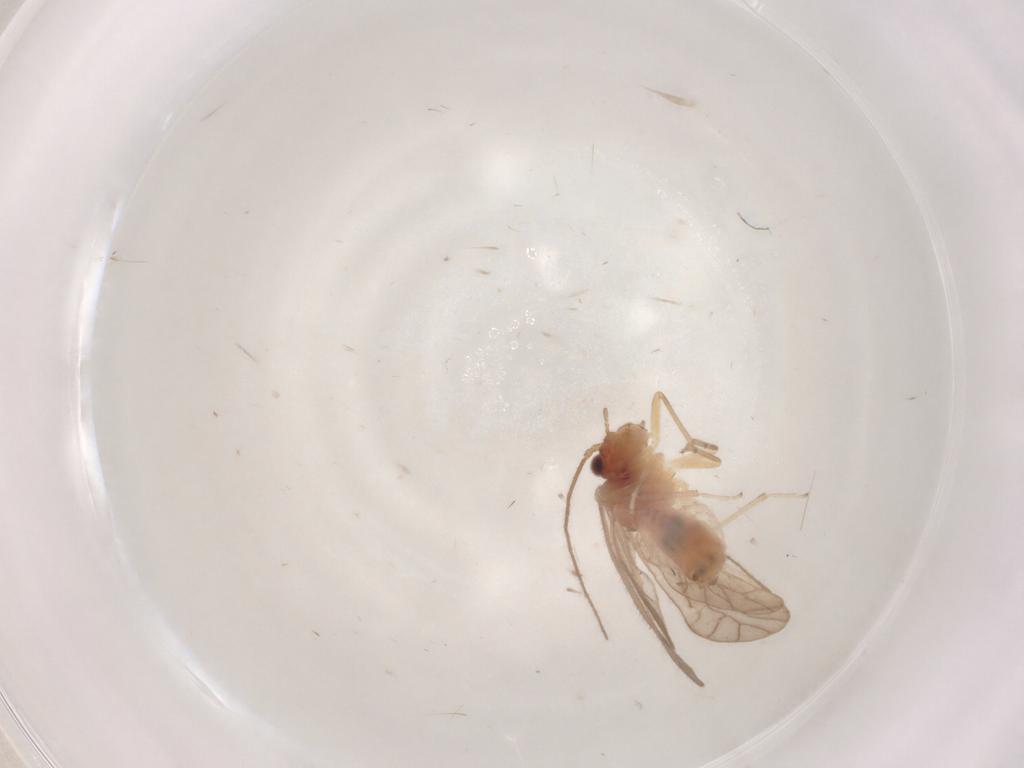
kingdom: Animalia
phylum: Arthropoda
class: Insecta
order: Psocodea
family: Caeciliusidae
